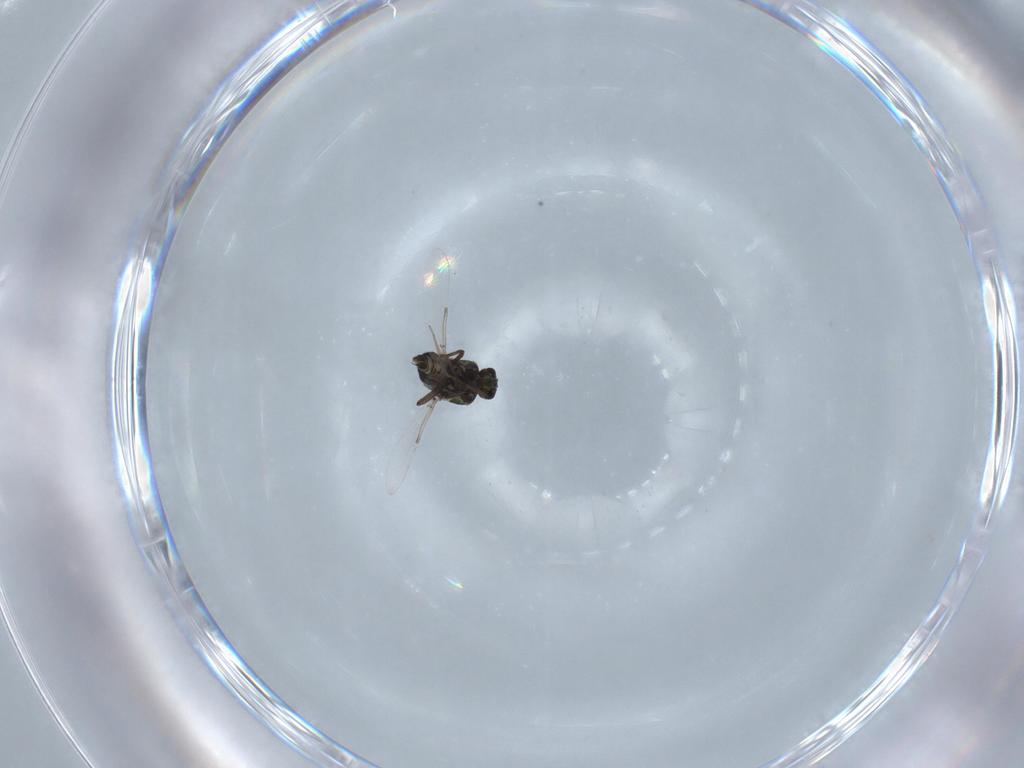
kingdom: Animalia
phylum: Arthropoda
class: Insecta
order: Diptera
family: Ceratopogonidae
